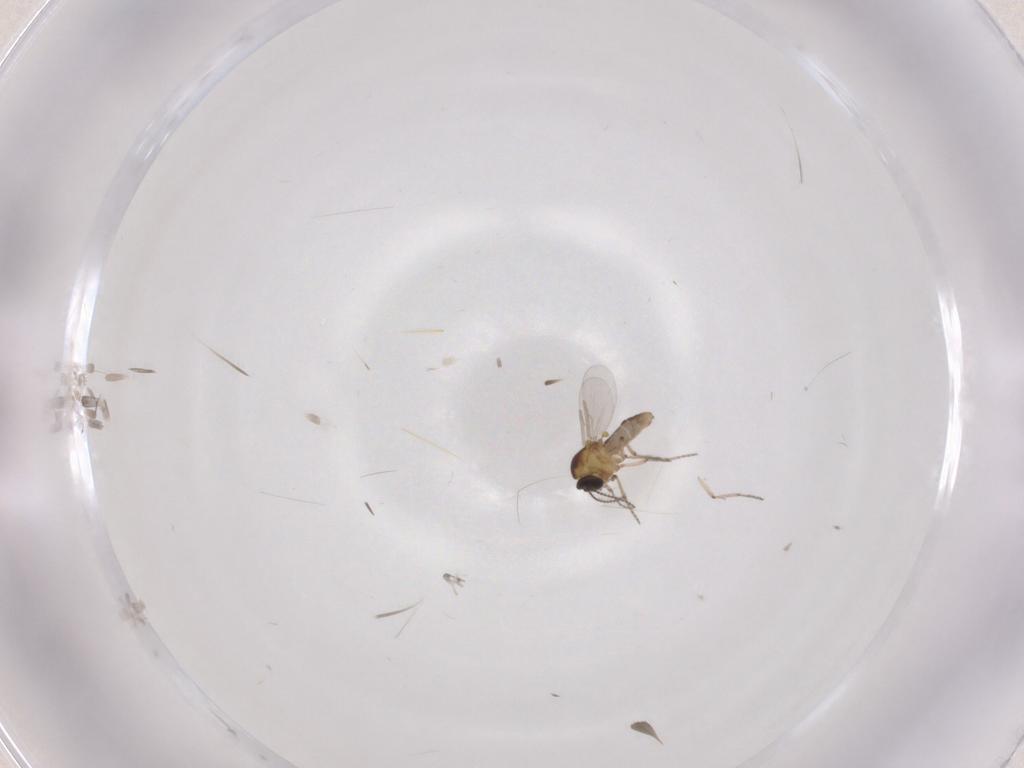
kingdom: Animalia
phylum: Arthropoda
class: Insecta
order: Diptera
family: Ceratopogonidae
